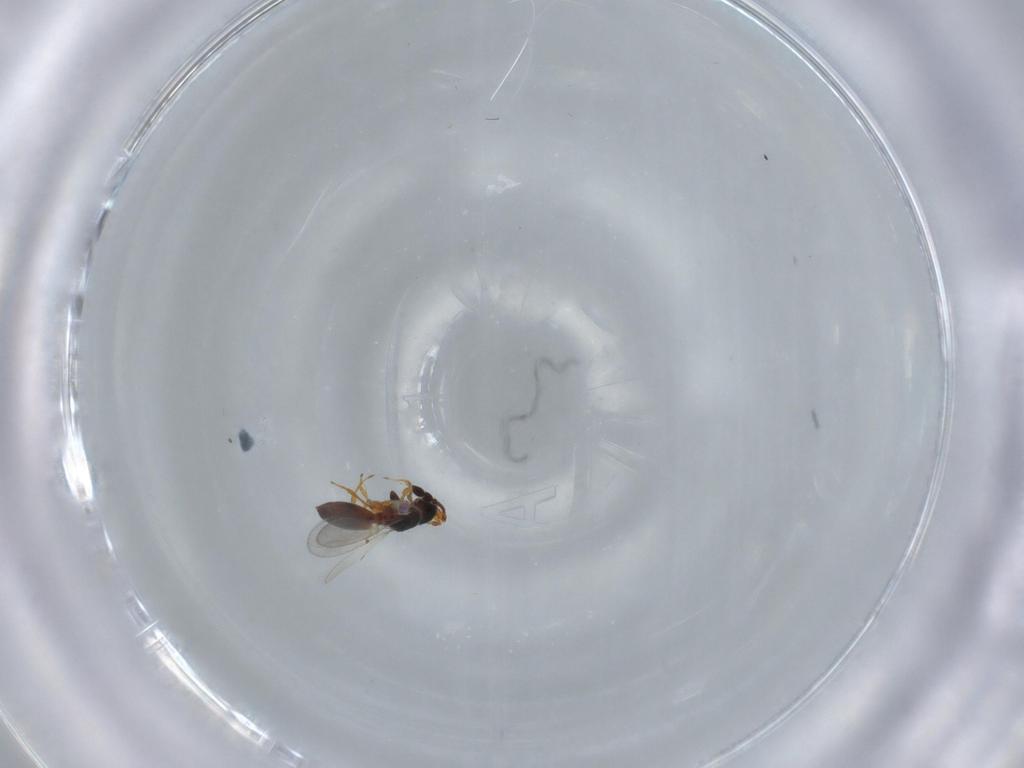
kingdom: Animalia
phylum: Arthropoda
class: Insecta
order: Hymenoptera
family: Diapriidae
